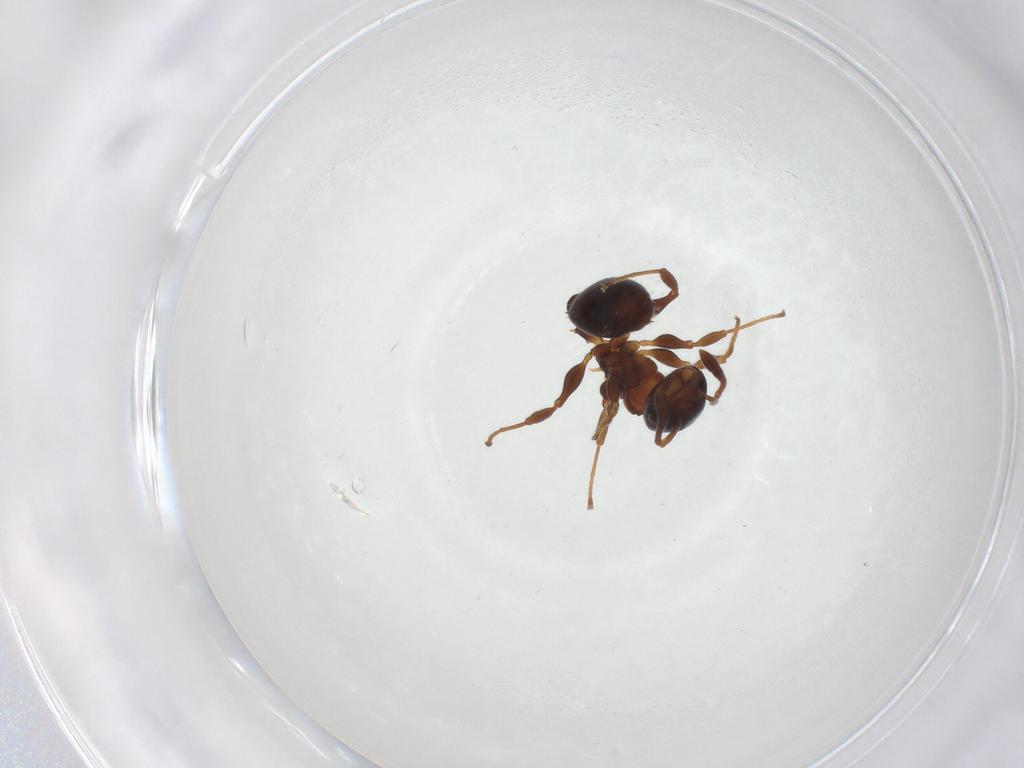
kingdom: Animalia
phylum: Arthropoda
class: Insecta
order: Hymenoptera
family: Formicidae
